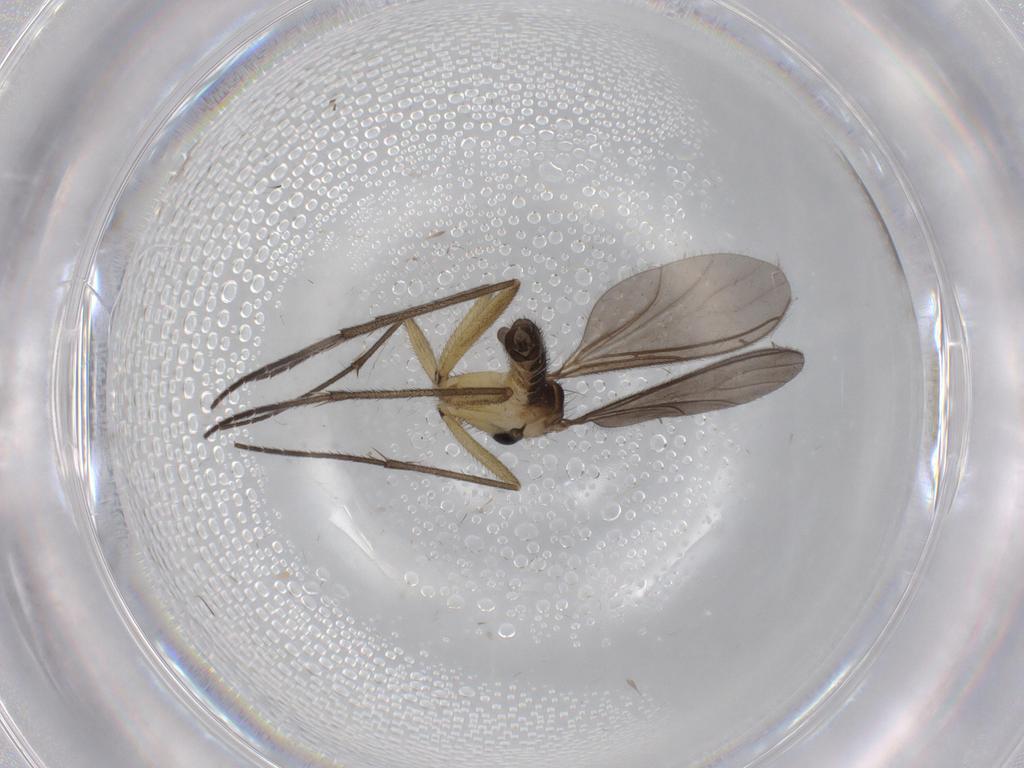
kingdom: Animalia
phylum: Arthropoda
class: Insecta
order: Diptera
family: Sciaridae
